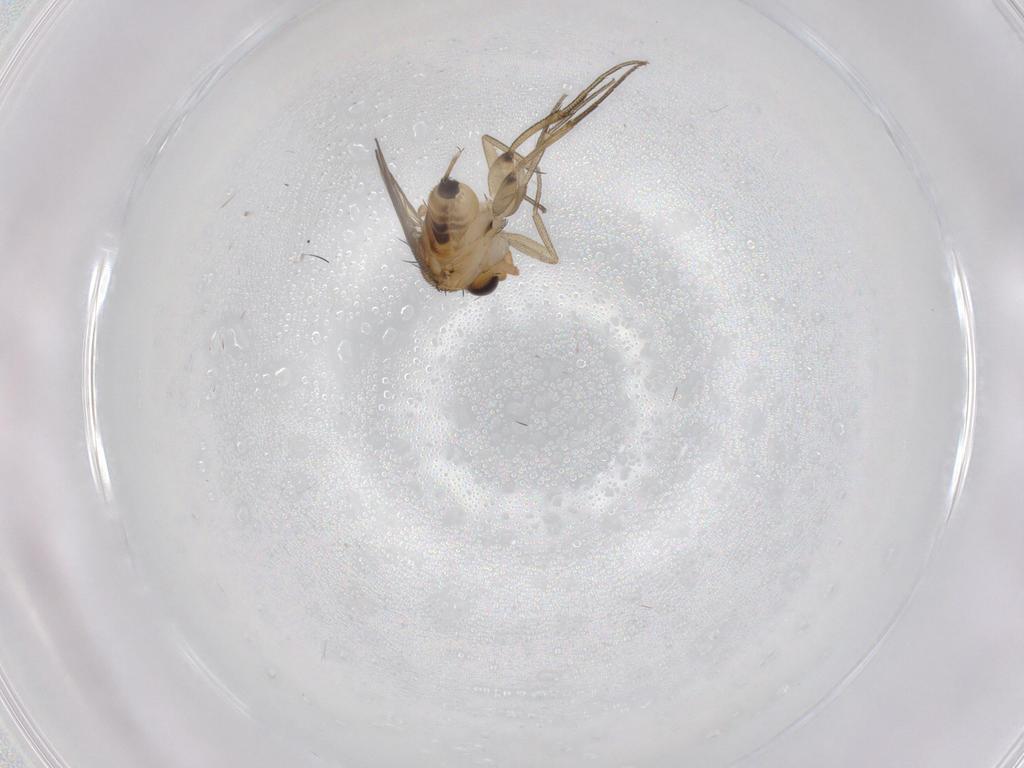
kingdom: Animalia
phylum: Arthropoda
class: Insecta
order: Diptera
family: Phoridae
